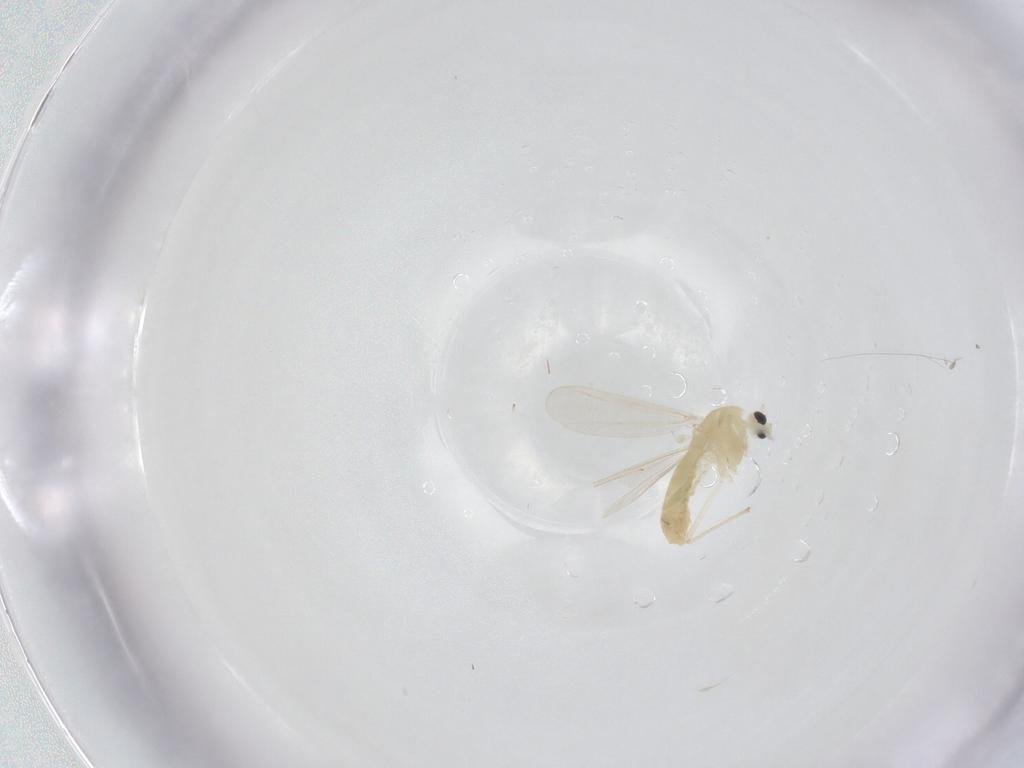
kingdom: Animalia
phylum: Arthropoda
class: Insecta
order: Diptera
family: Chironomidae
